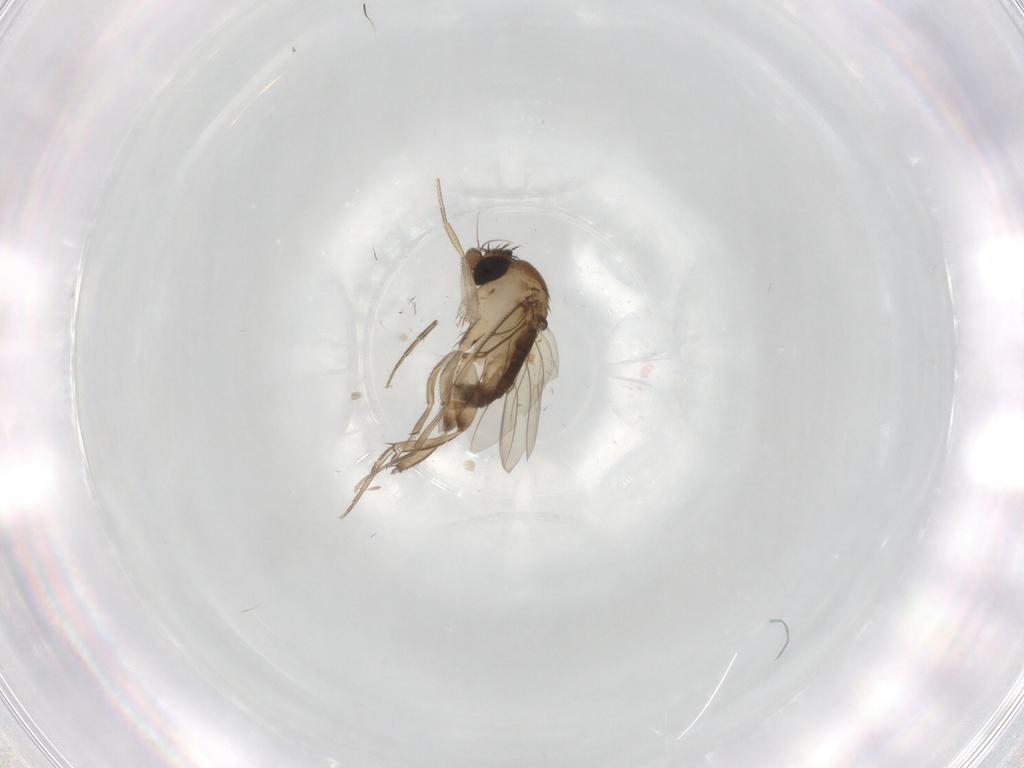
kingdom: Animalia
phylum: Arthropoda
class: Insecta
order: Diptera
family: Phoridae
